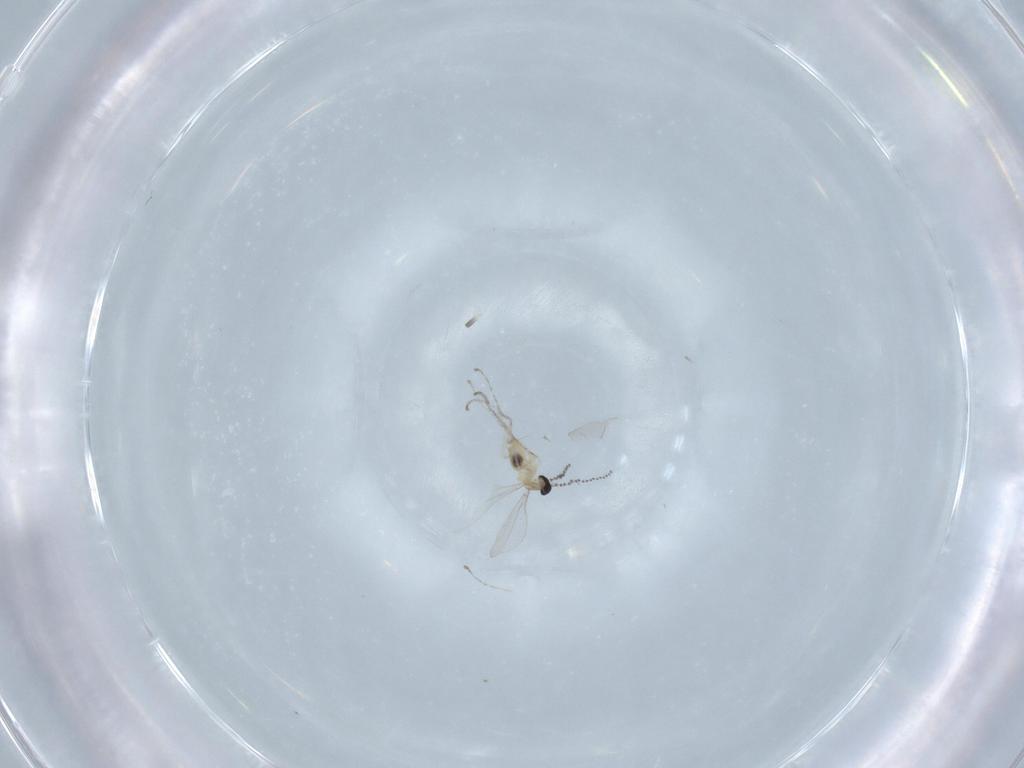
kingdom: Animalia
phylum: Arthropoda
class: Insecta
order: Diptera
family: Cecidomyiidae
